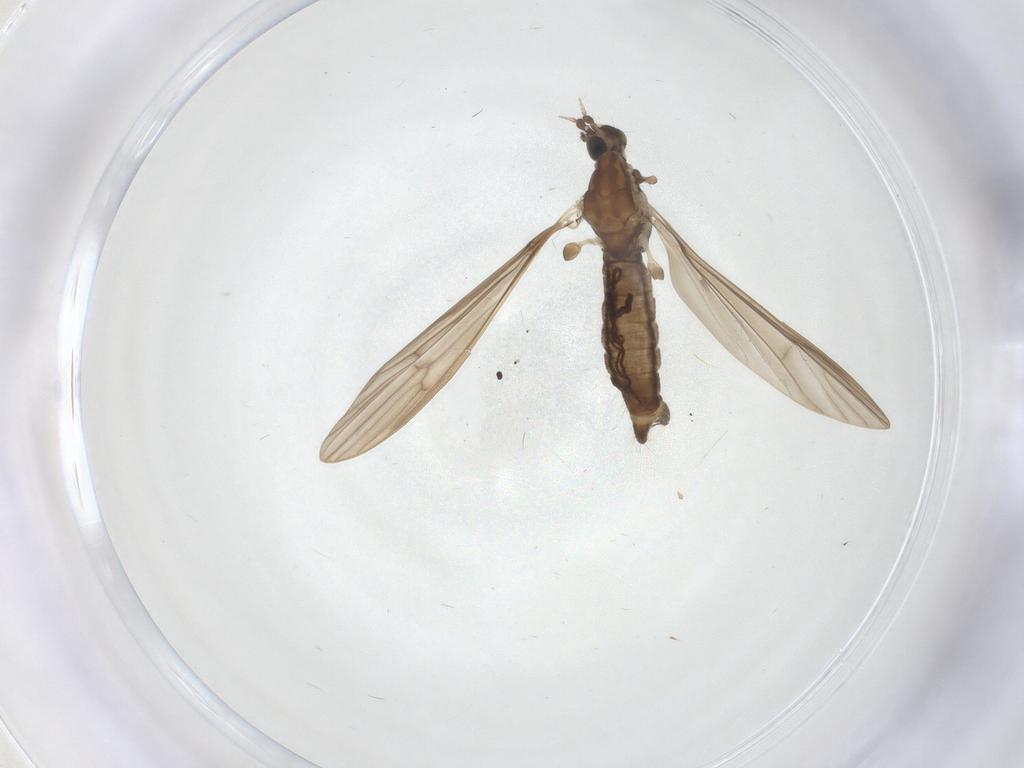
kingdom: Animalia
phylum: Arthropoda
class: Insecta
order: Diptera
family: Limoniidae
